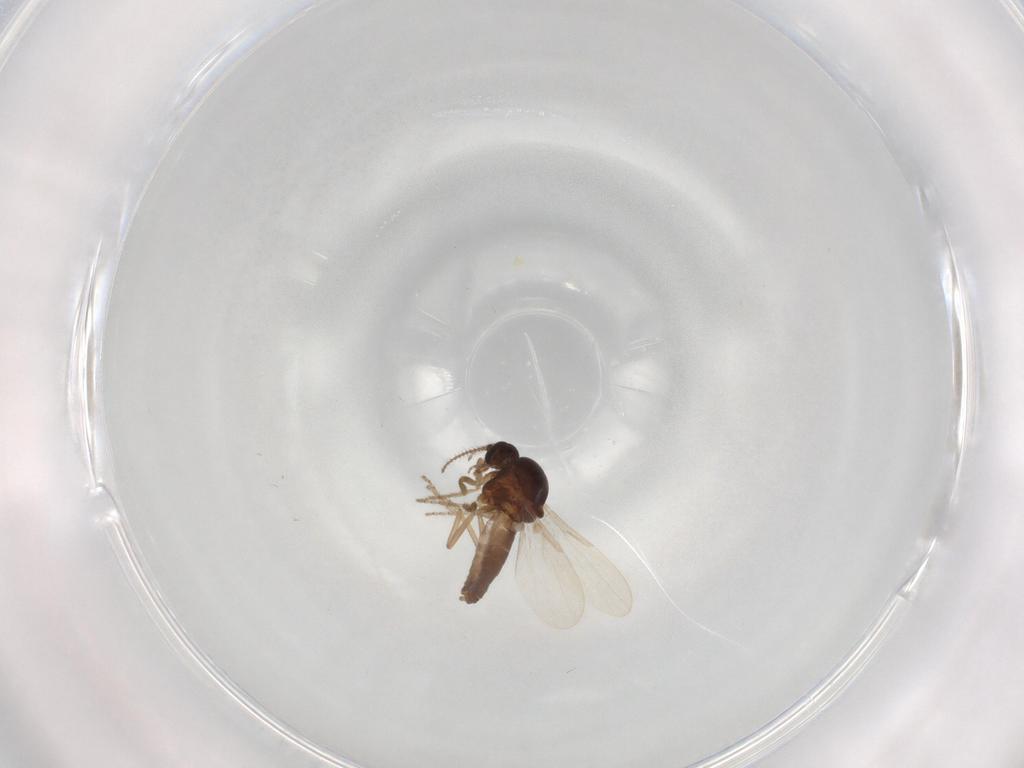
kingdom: Animalia
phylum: Arthropoda
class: Insecta
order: Diptera
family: Ceratopogonidae
